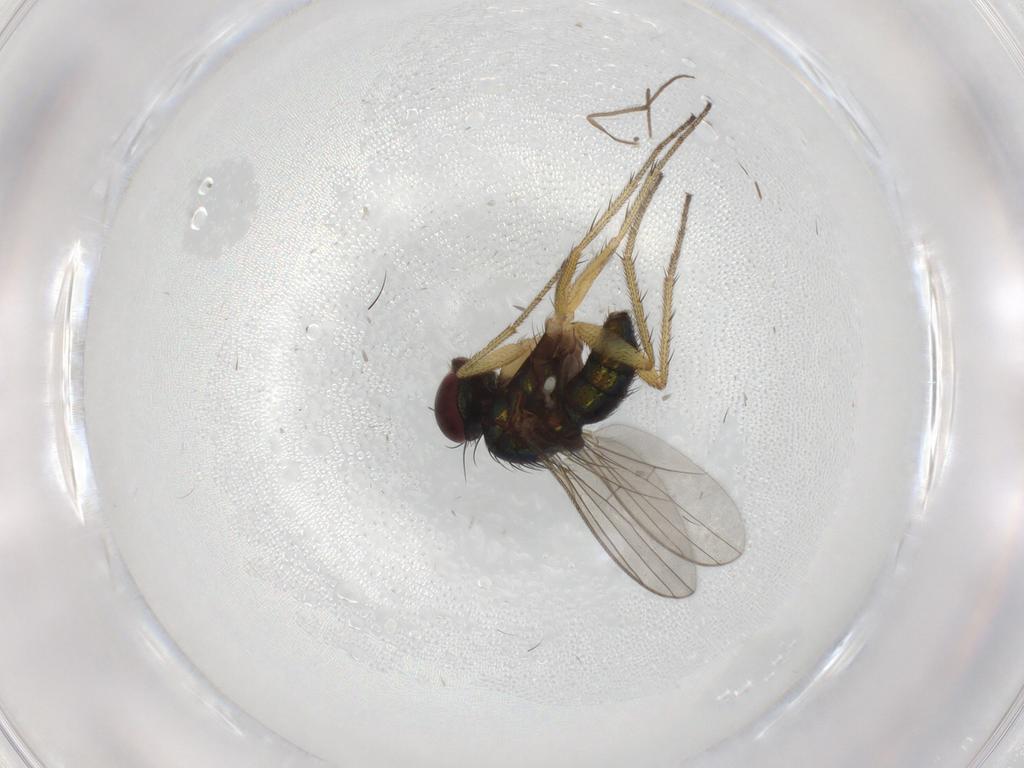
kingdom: Animalia
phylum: Arthropoda
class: Insecta
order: Diptera
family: Chironomidae
